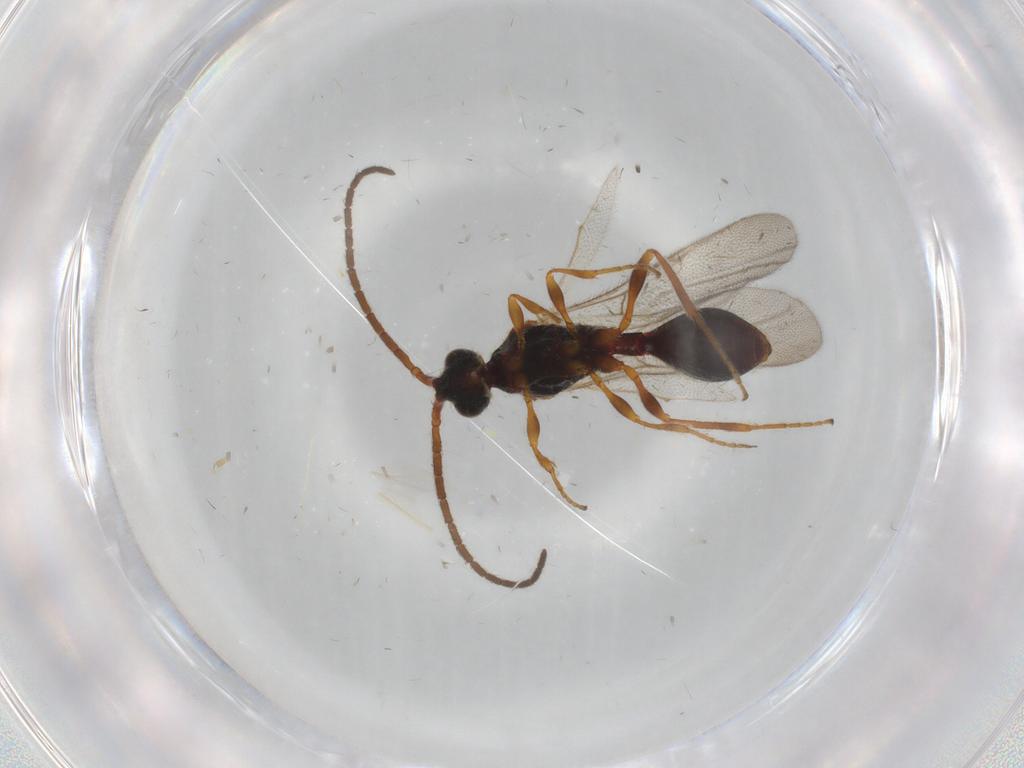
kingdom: Animalia
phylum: Arthropoda
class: Insecta
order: Hymenoptera
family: Diapriidae
